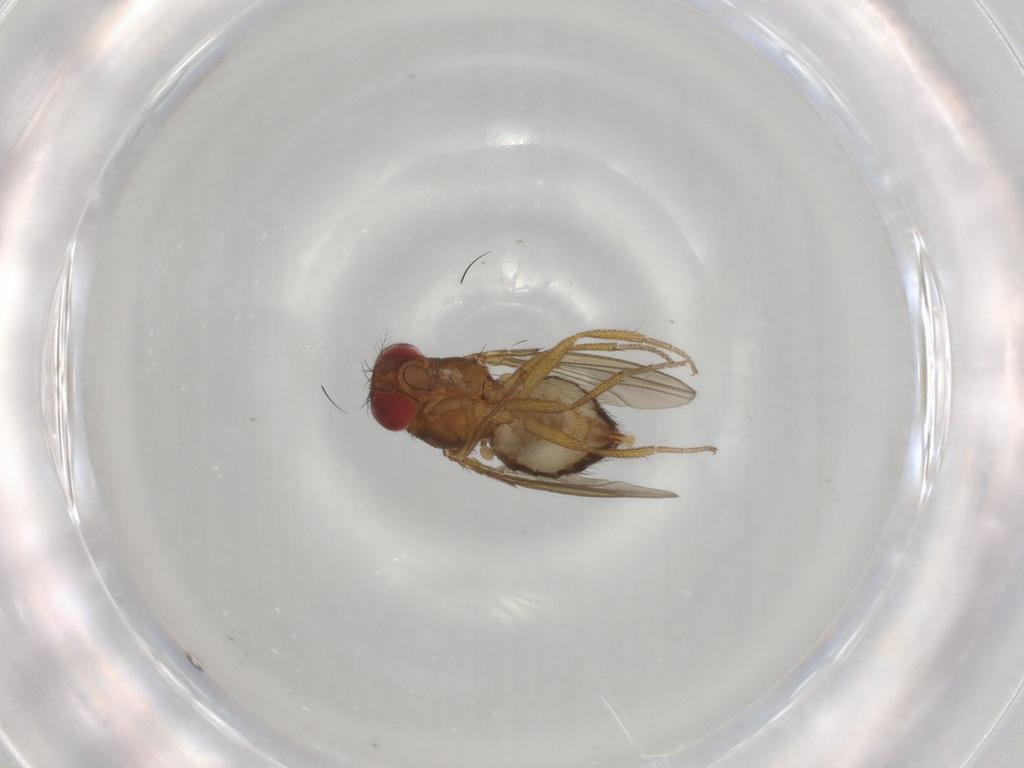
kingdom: Animalia
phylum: Arthropoda
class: Insecta
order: Diptera
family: Drosophilidae
